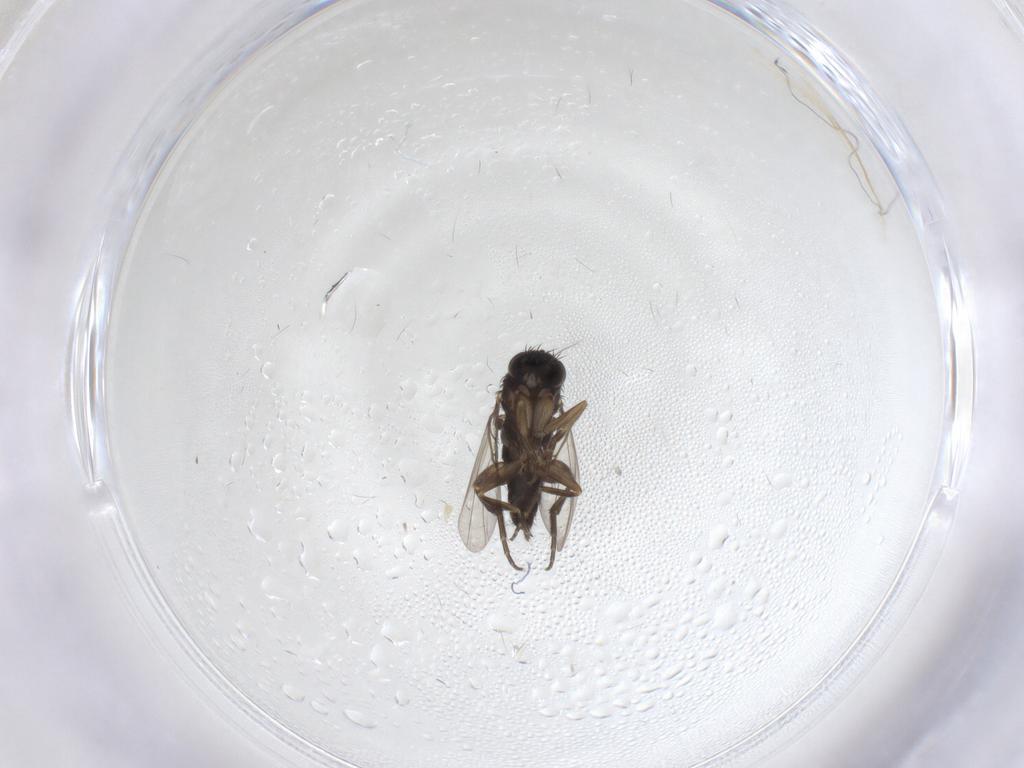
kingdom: Animalia
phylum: Arthropoda
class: Insecta
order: Diptera
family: Phoridae
